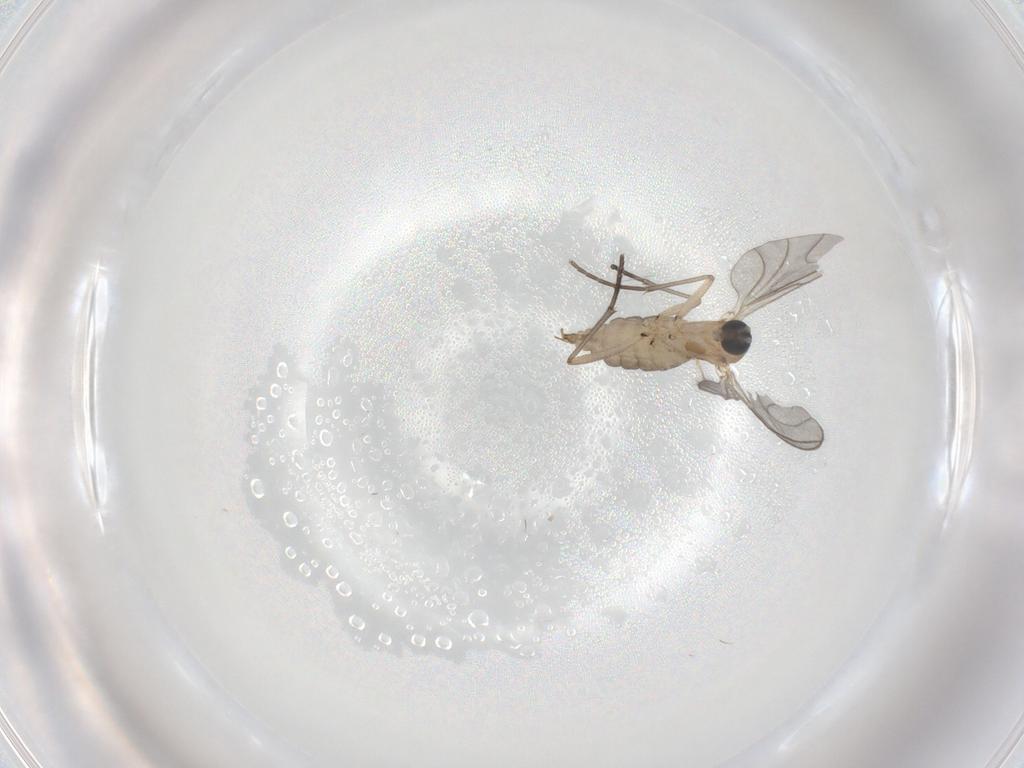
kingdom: Animalia
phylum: Arthropoda
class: Insecta
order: Diptera
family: Sciaridae
